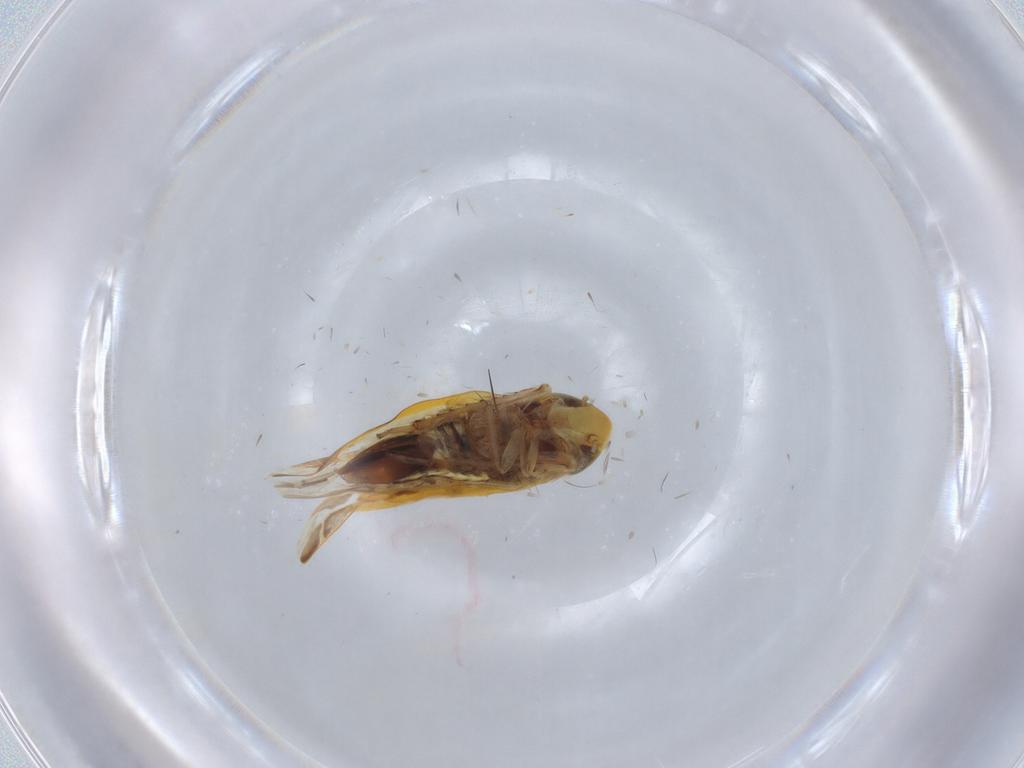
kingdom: Animalia
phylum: Arthropoda
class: Insecta
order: Hemiptera
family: Cicadellidae
